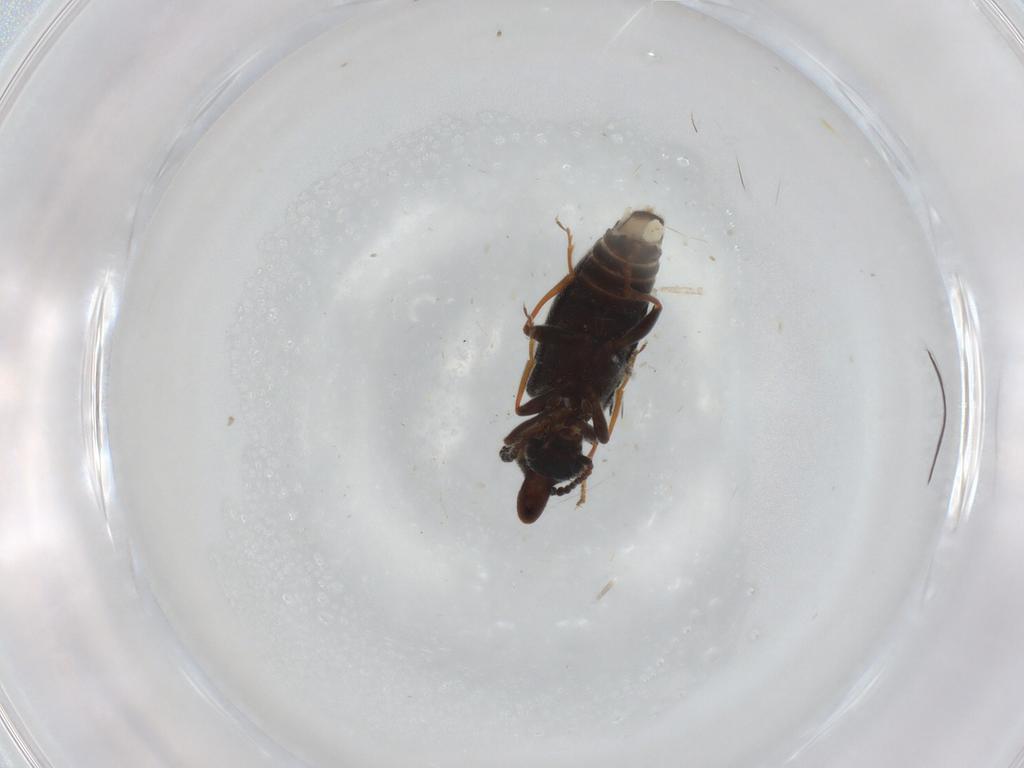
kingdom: Animalia
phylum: Arthropoda
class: Insecta
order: Coleoptera
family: Anthicidae
